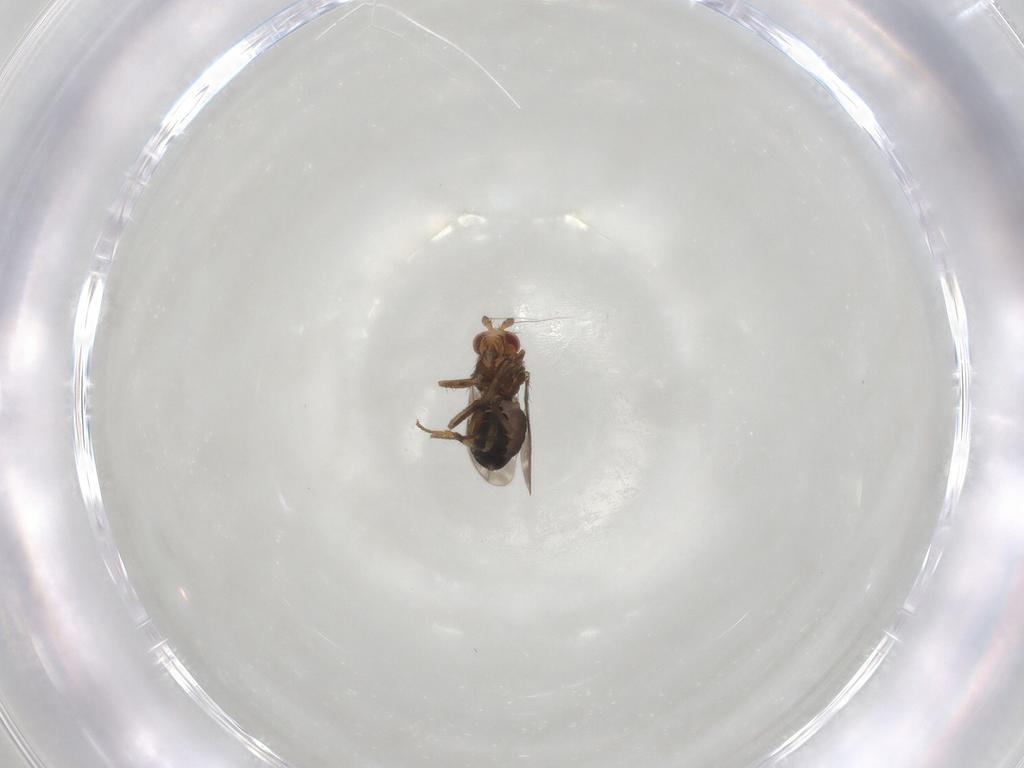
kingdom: Animalia
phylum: Arthropoda
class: Insecta
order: Diptera
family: Sphaeroceridae
